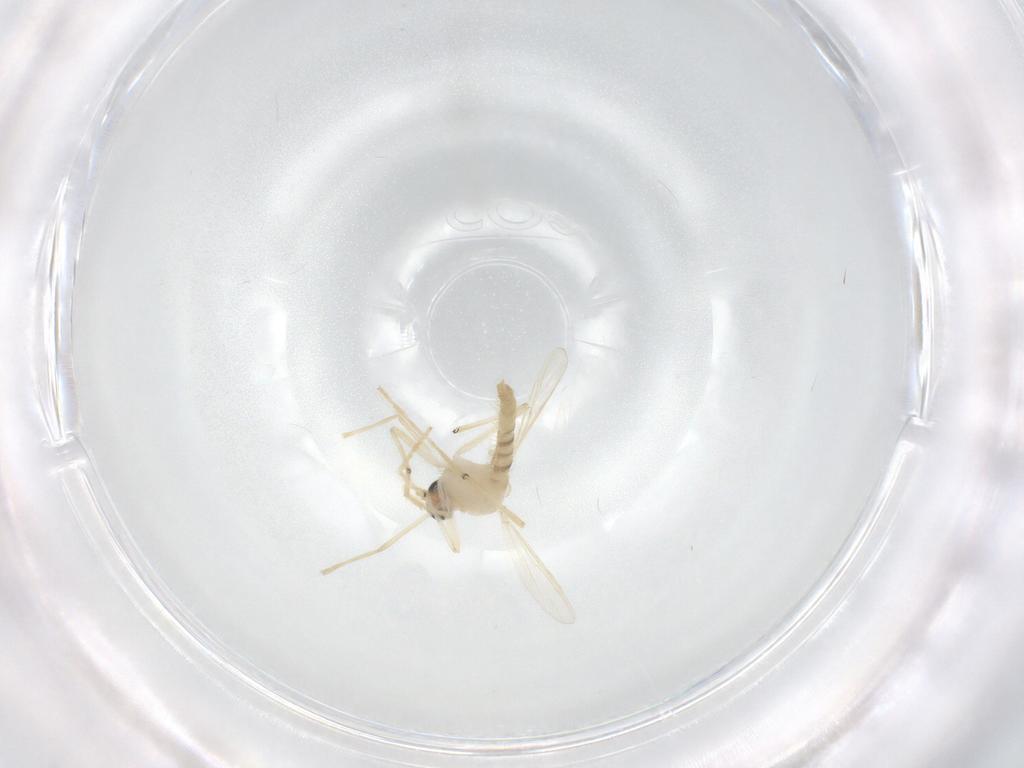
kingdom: Animalia
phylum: Arthropoda
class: Insecta
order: Diptera
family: Chironomidae
